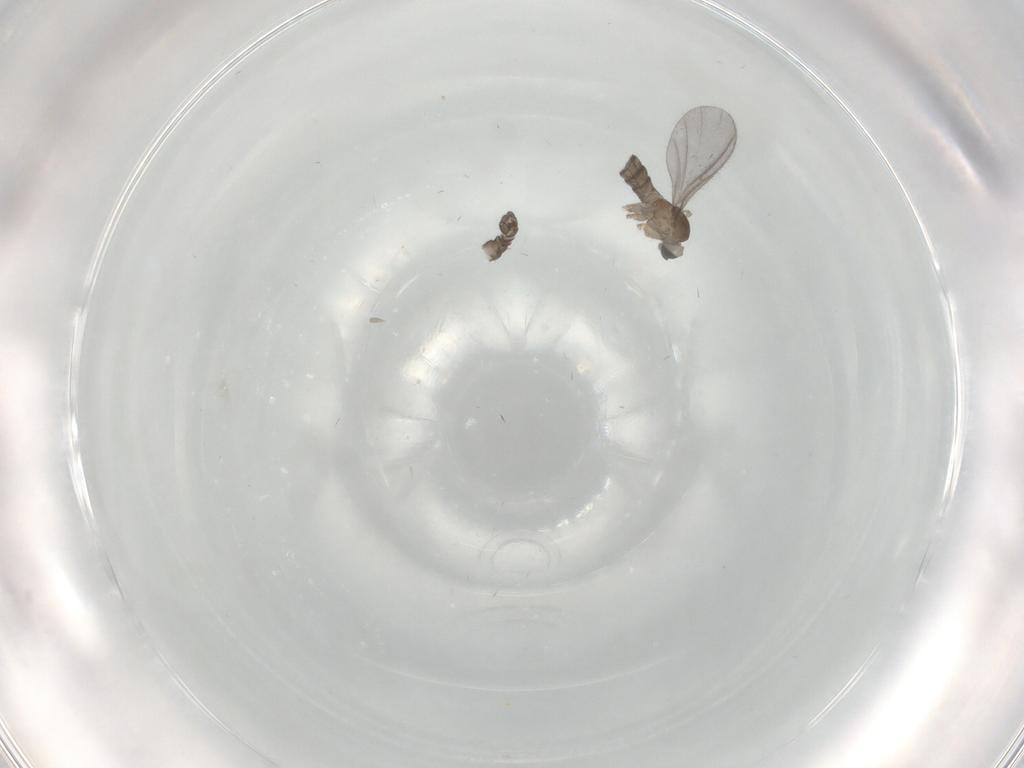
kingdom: Animalia
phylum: Arthropoda
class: Insecta
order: Diptera
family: Sciaridae
